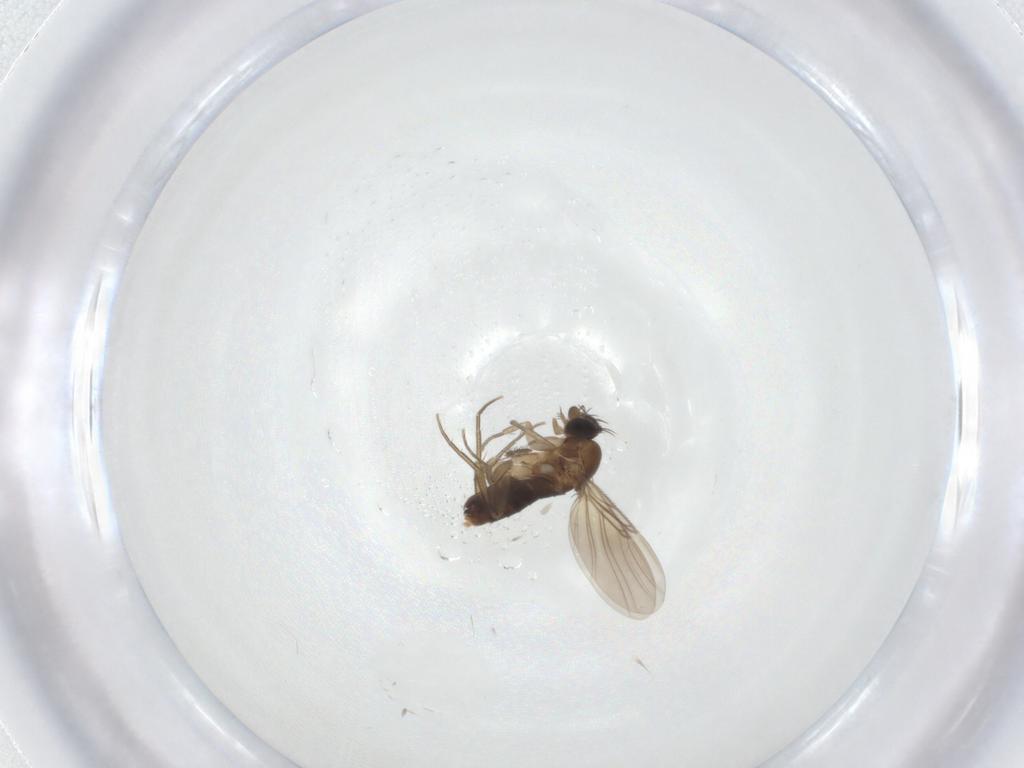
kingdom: Animalia
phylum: Arthropoda
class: Insecta
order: Diptera
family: Phoridae
